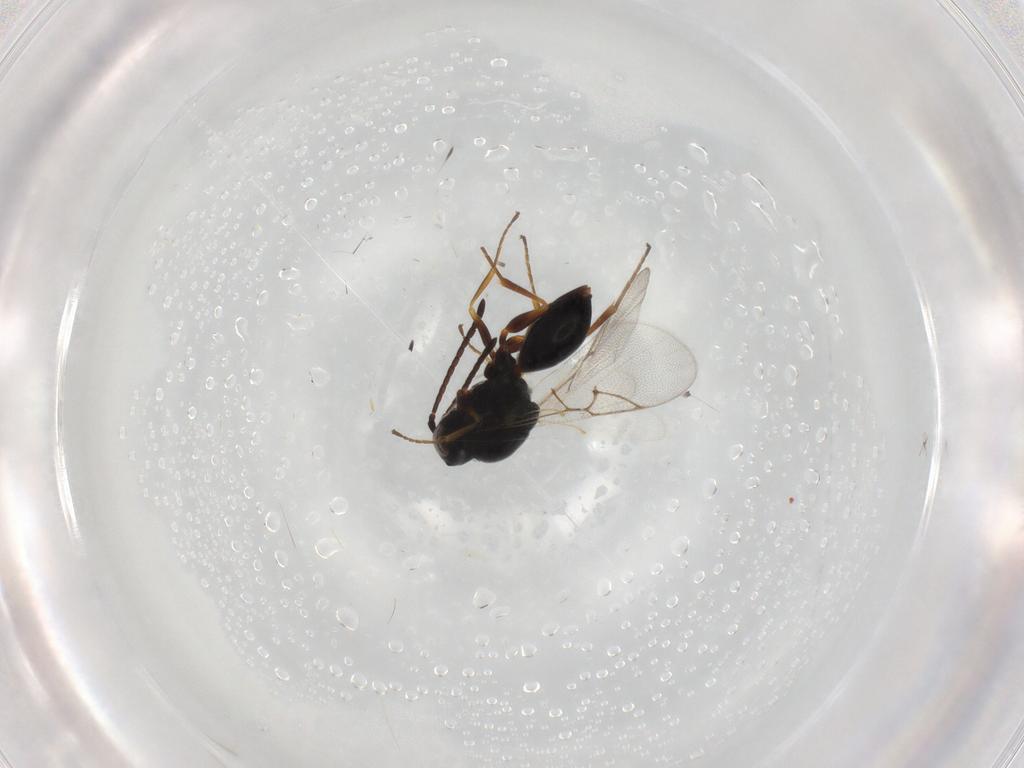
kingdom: Animalia
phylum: Arthropoda
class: Insecta
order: Hymenoptera
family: Figitidae
